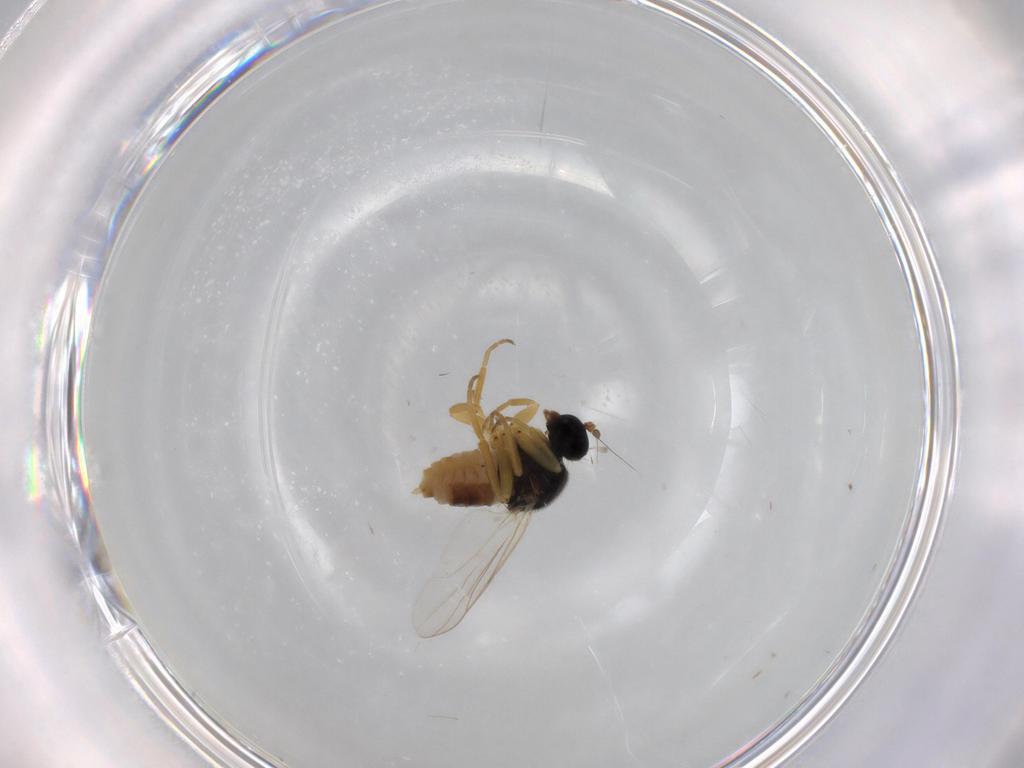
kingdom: Animalia
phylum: Arthropoda
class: Insecta
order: Diptera
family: Hybotidae
